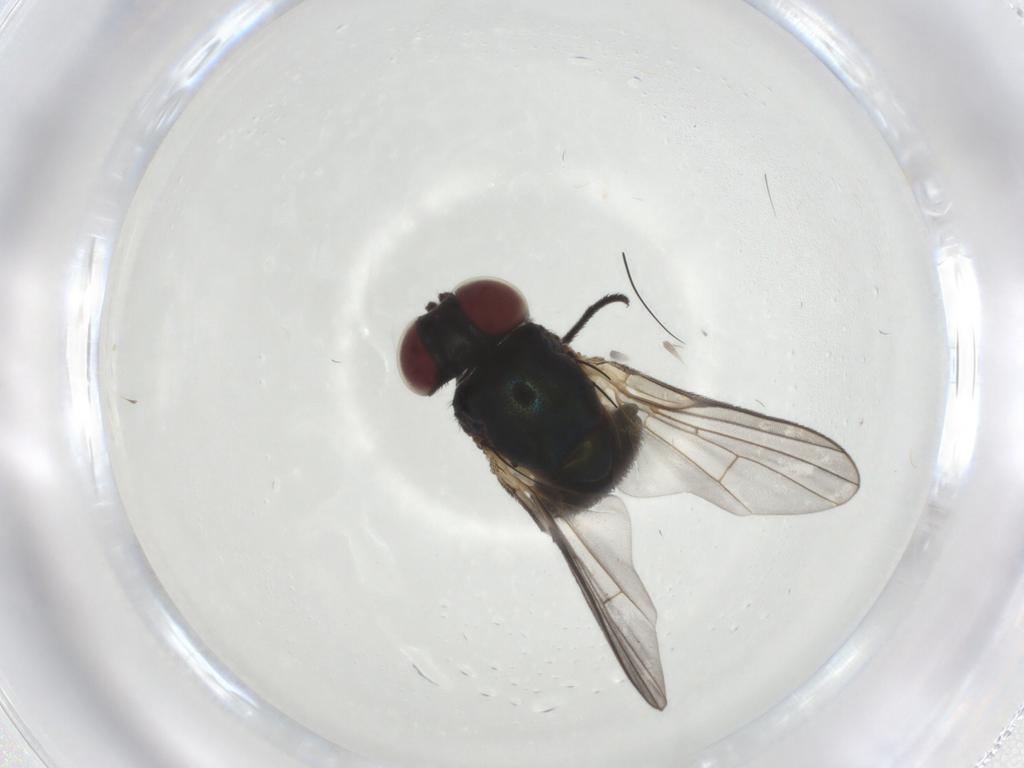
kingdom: Animalia
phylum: Arthropoda
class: Insecta
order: Diptera
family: Agromyzidae
